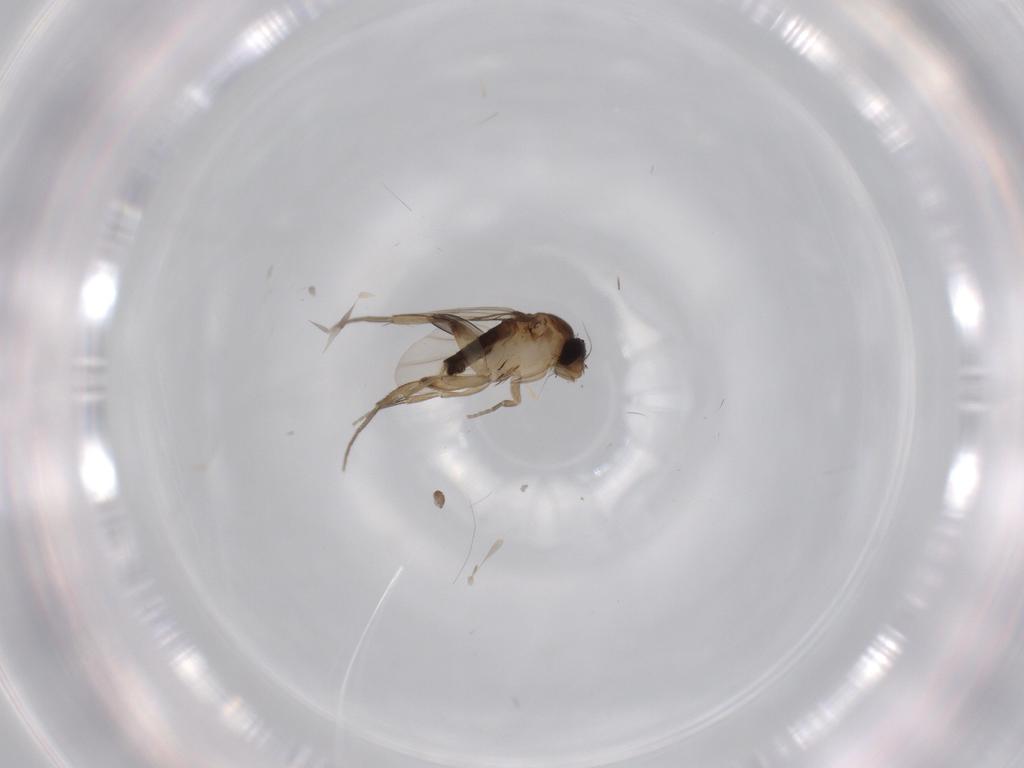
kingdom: Animalia
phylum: Arthropoda
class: Insecta
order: Diptera
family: Phoridae
